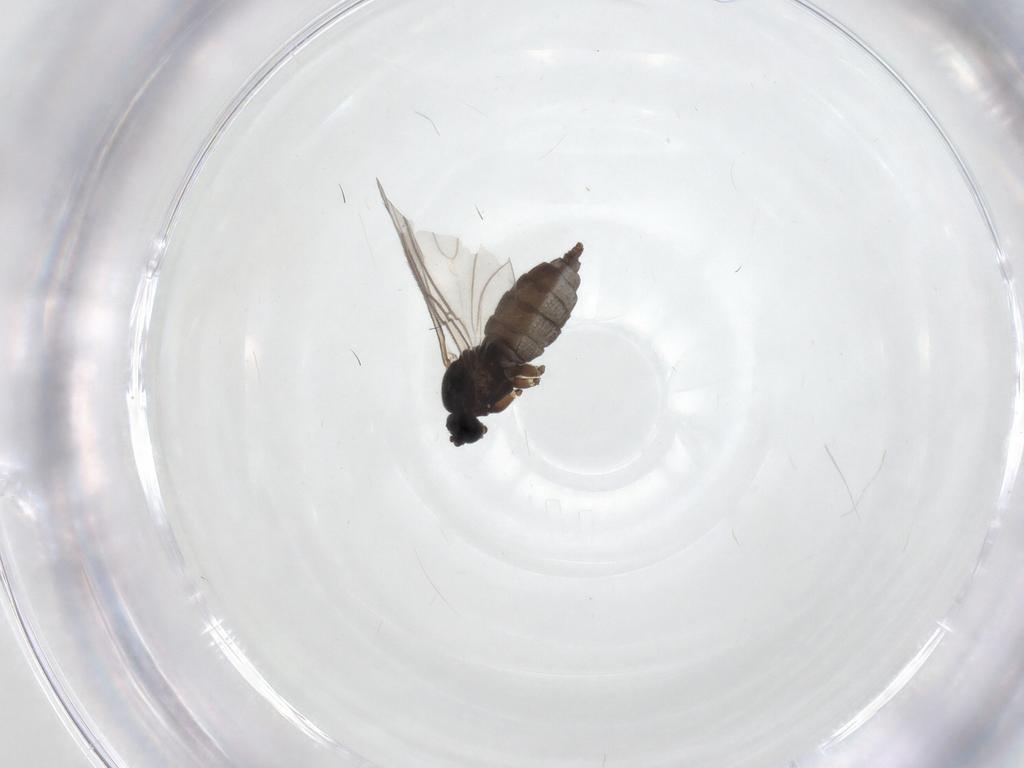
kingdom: Animalia
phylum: Arthropoda
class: Insecta
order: Diptera
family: Sciaridae
